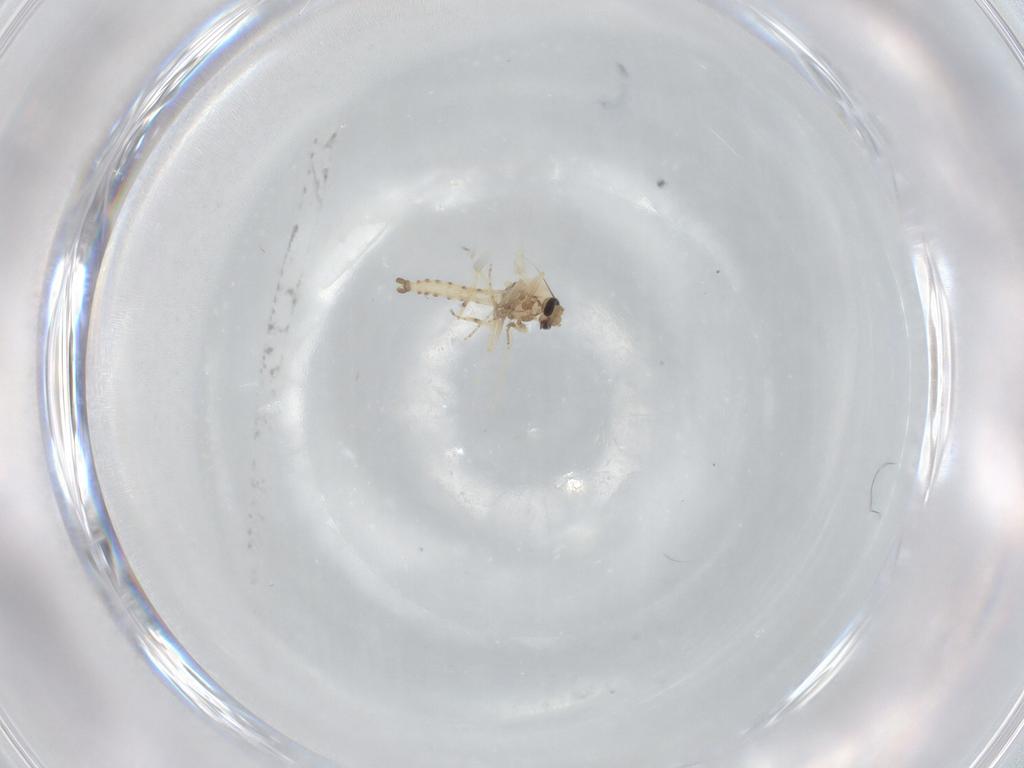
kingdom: Animalia
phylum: Arthropoda
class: Insecta
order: Diptera
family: Ceratopogonidae
